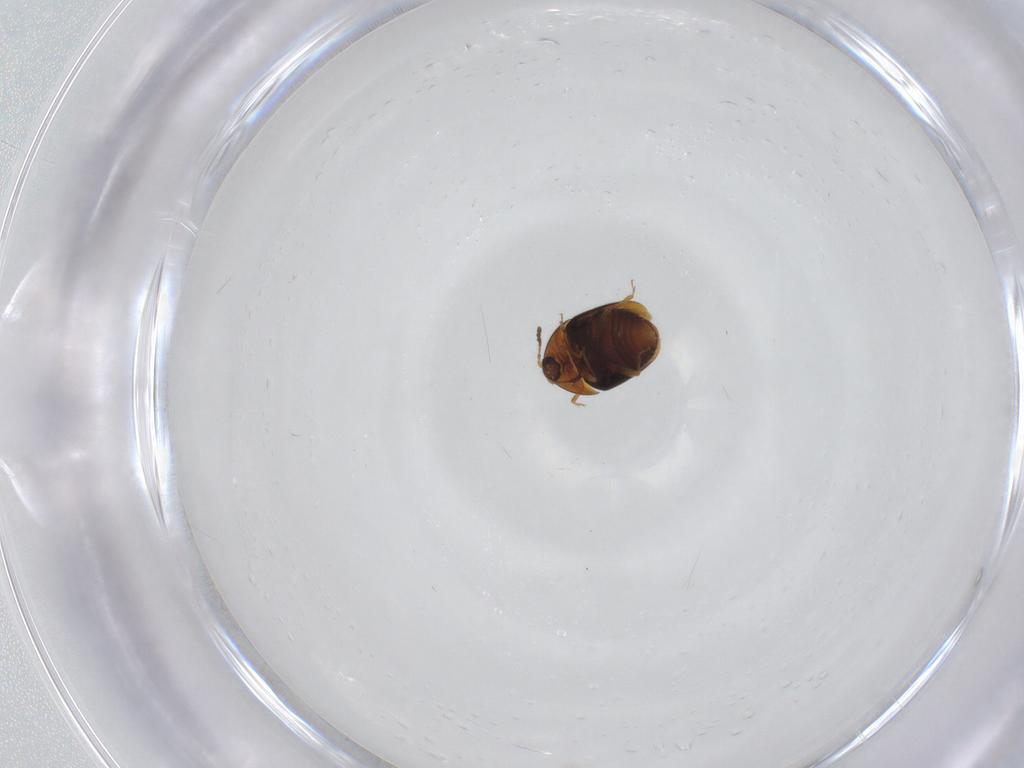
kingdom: Animalia
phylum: Arthropoda
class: Insecta
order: Coleoptera
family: Corylophidae
